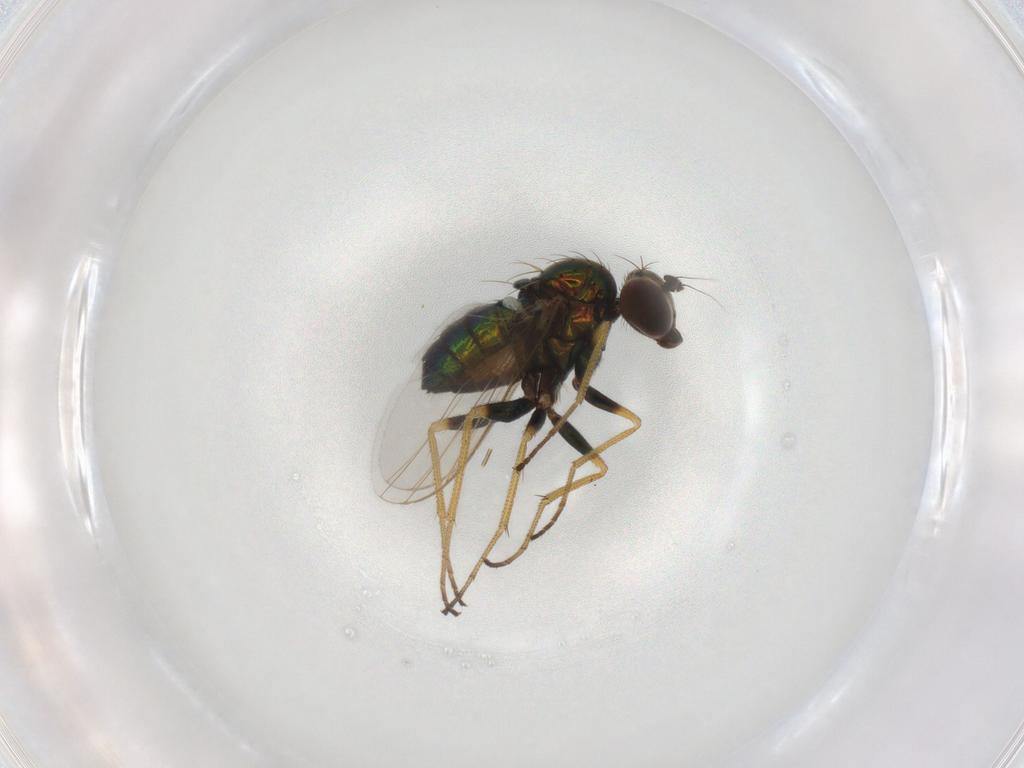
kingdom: Animalia
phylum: Arthropoda
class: Insecta
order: Diptera
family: Dolichopodidae
